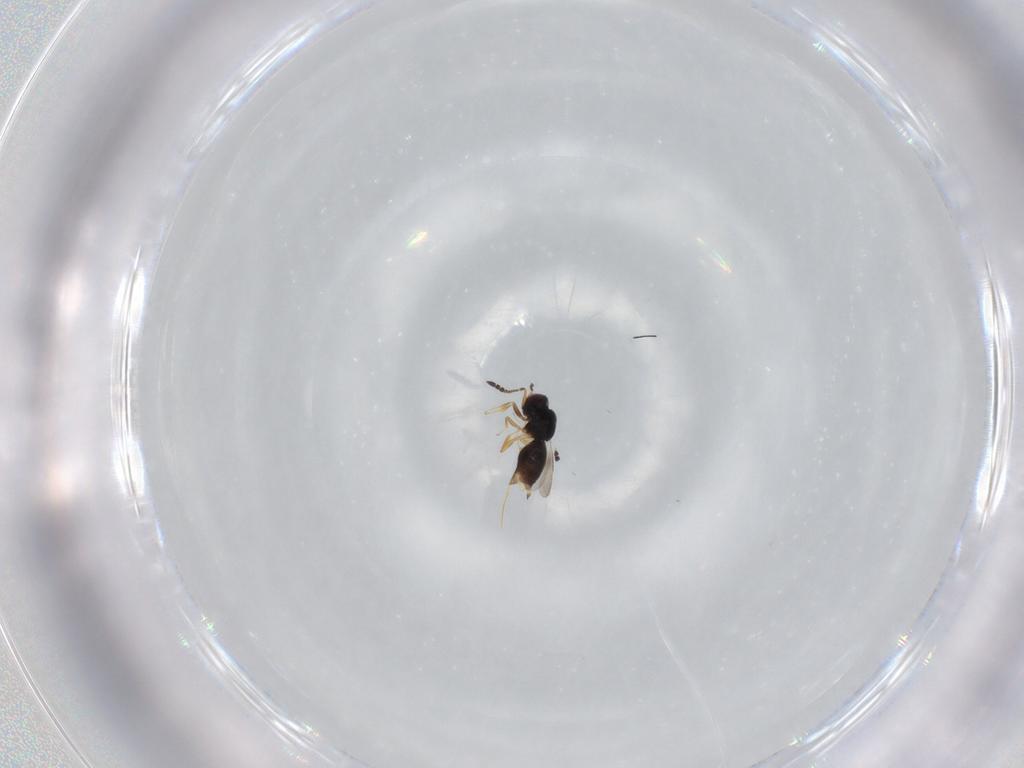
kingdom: Animalia
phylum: Arthropoda
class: Insecta
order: Hymenoptera
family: Formicidae
